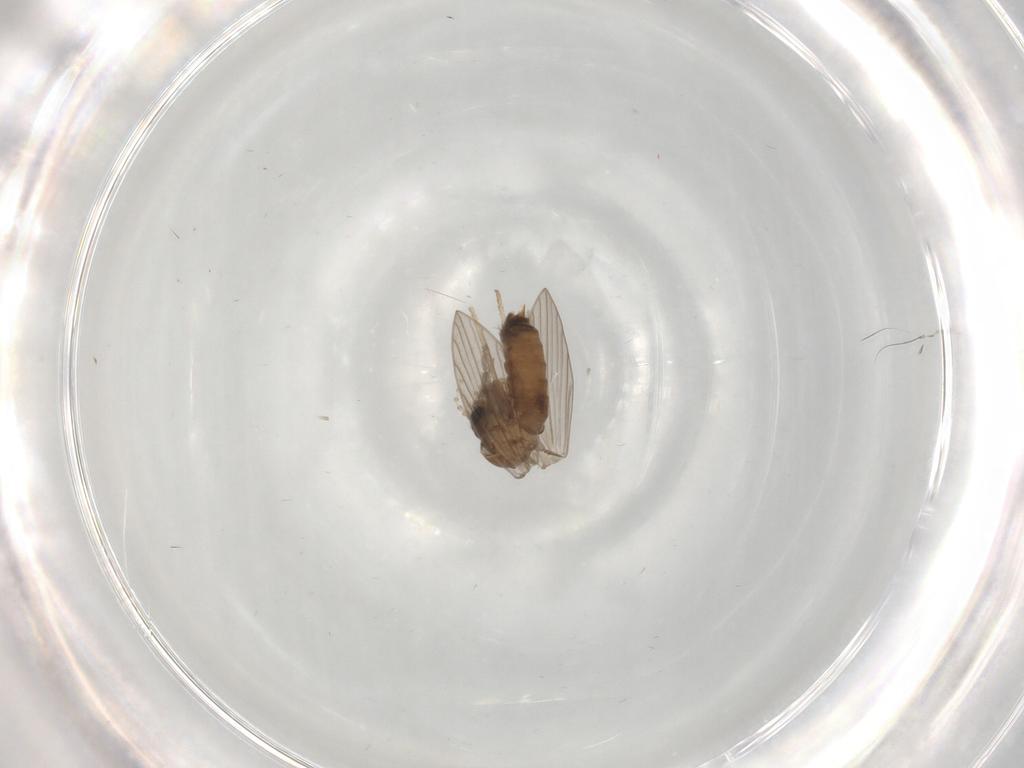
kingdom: Animalia
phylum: Arthropoda
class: Insecta
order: Diptera
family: Psychodidae
